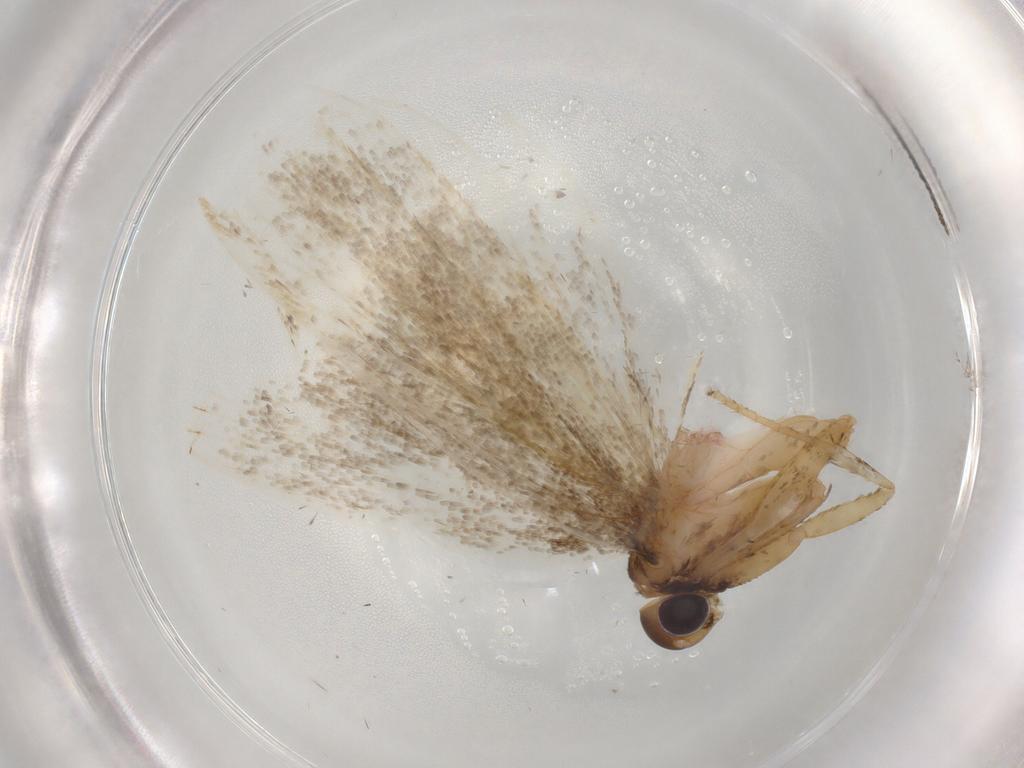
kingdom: Animalia
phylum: Arthropoda
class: Insecta
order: Lepidoptera
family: Lecithoceridae
